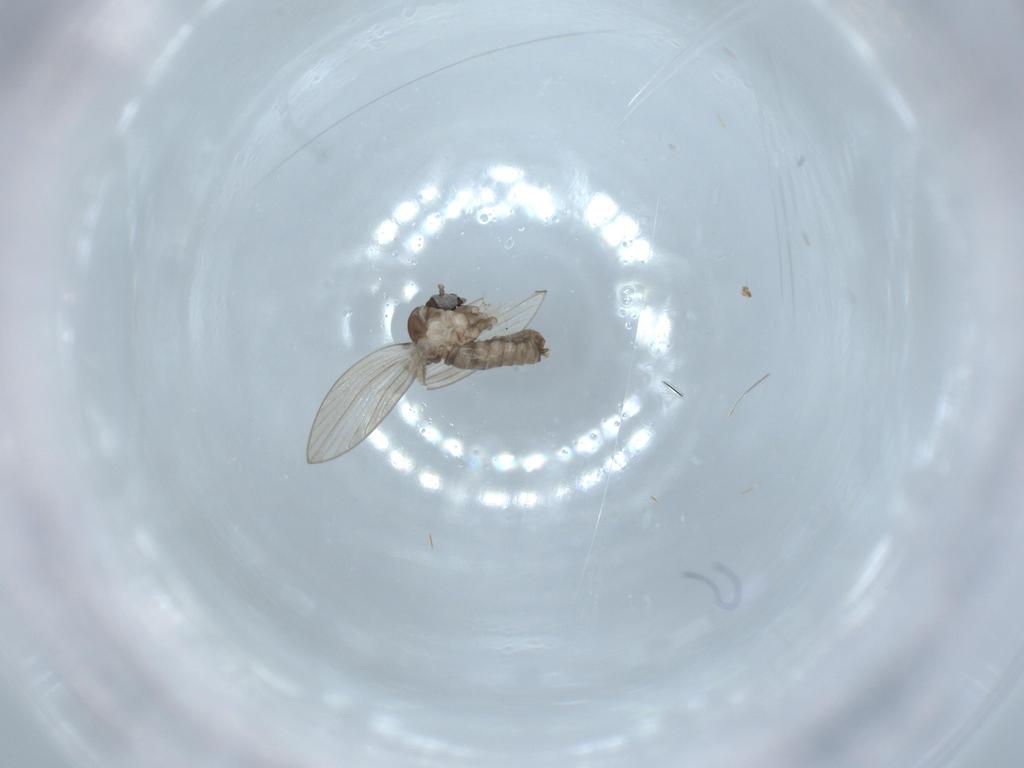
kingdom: Animalia
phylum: Arthropoda
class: Insecta
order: Diptera
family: Psychodidae
